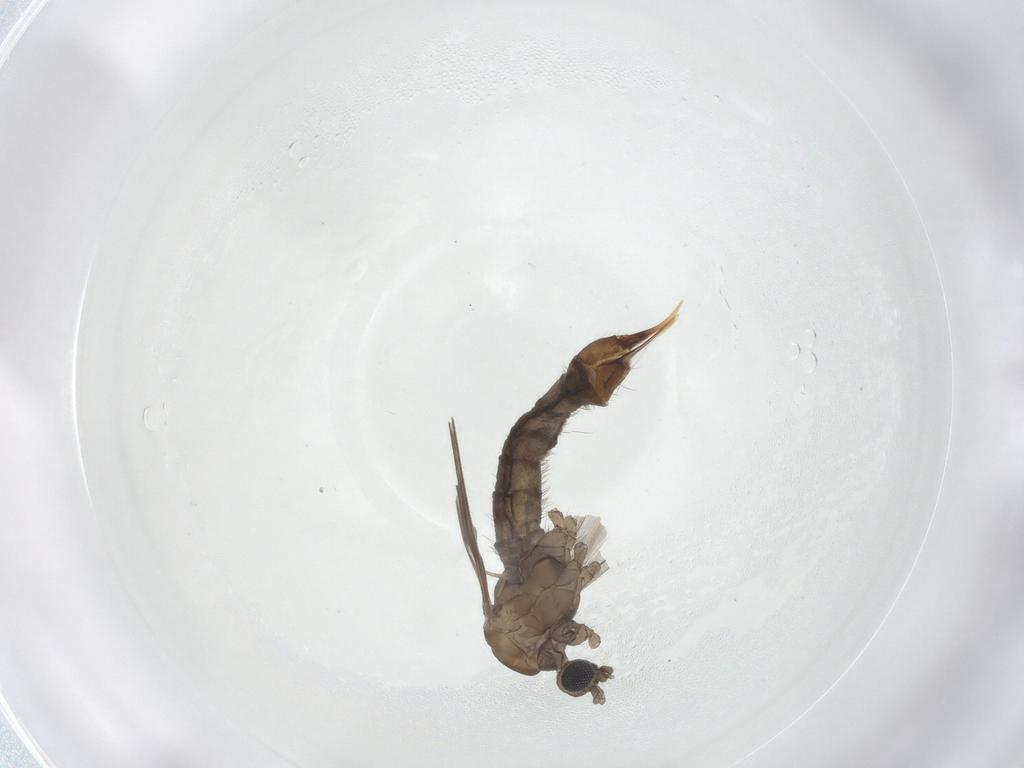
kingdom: Animalia
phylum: Arthropoda
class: Insecta
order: Diptera
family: Limoniidae
